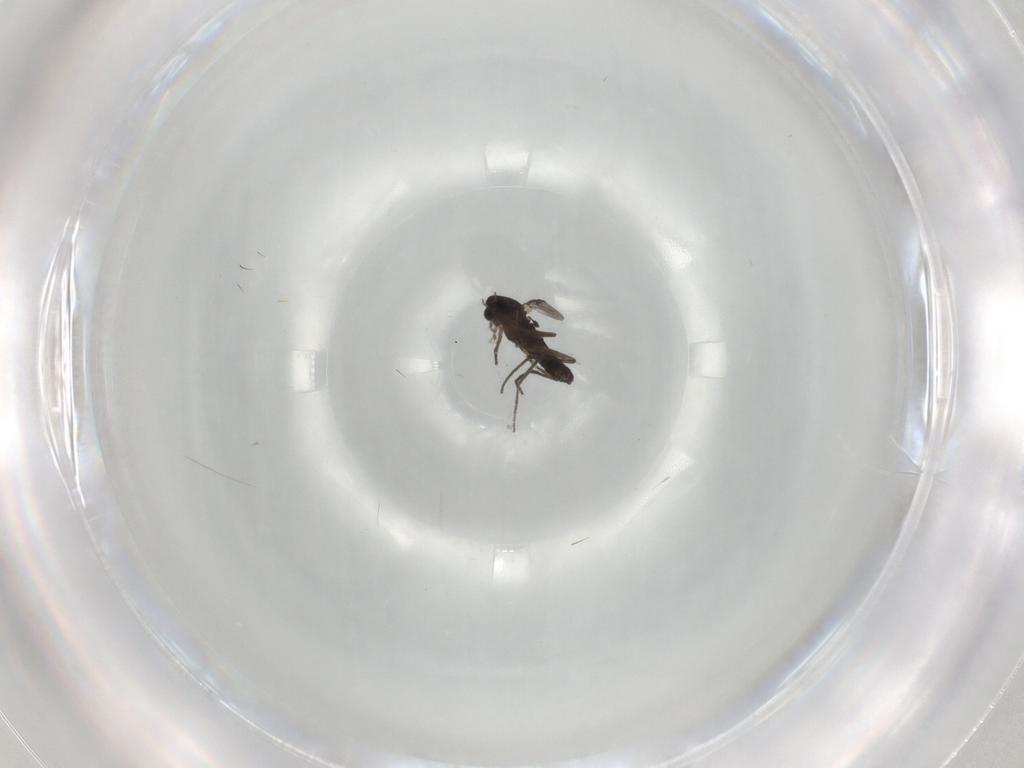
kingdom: Animalia
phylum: Arthropoda
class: Insecta
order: Diptera
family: Chironomidae
